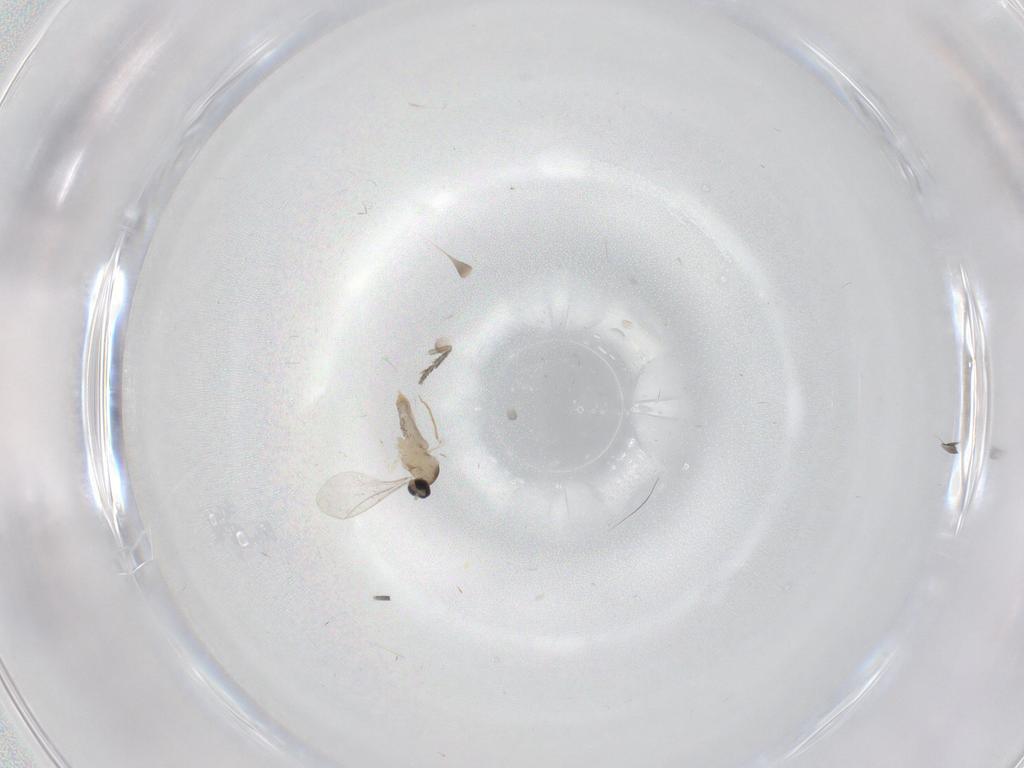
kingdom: Animalia
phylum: Arthropoda
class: Insecta
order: Diptera
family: Cecidomyiidae
